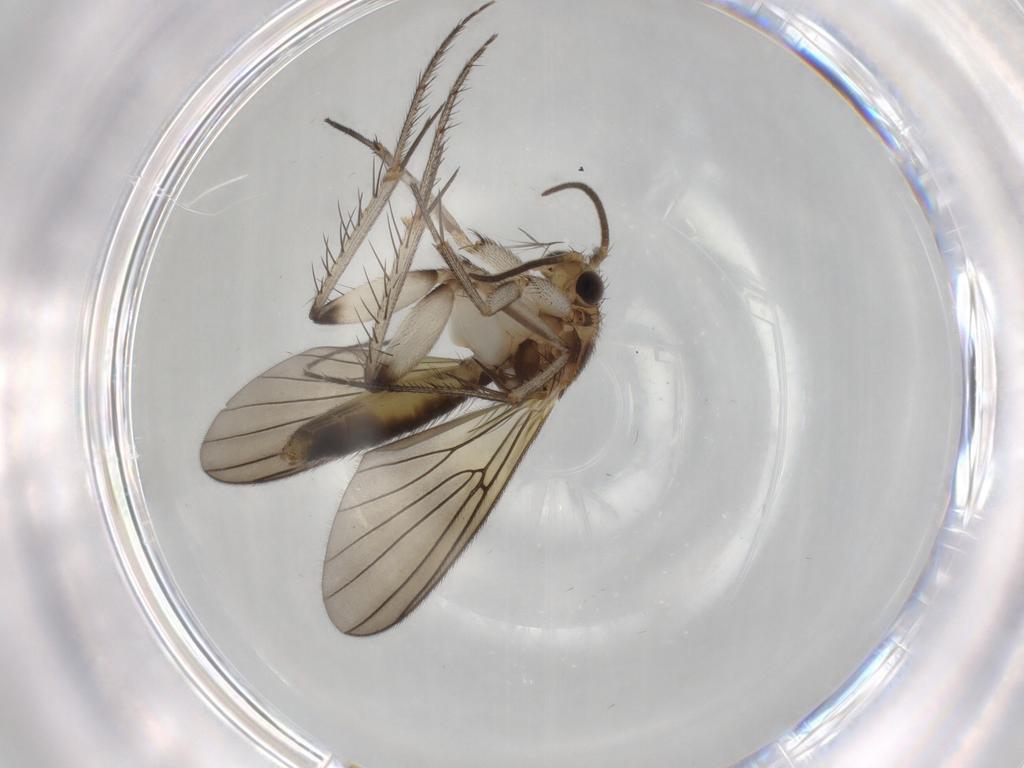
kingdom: Animalia
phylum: Arthropoda
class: Insecta
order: Diptera
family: Mycetophilidae
